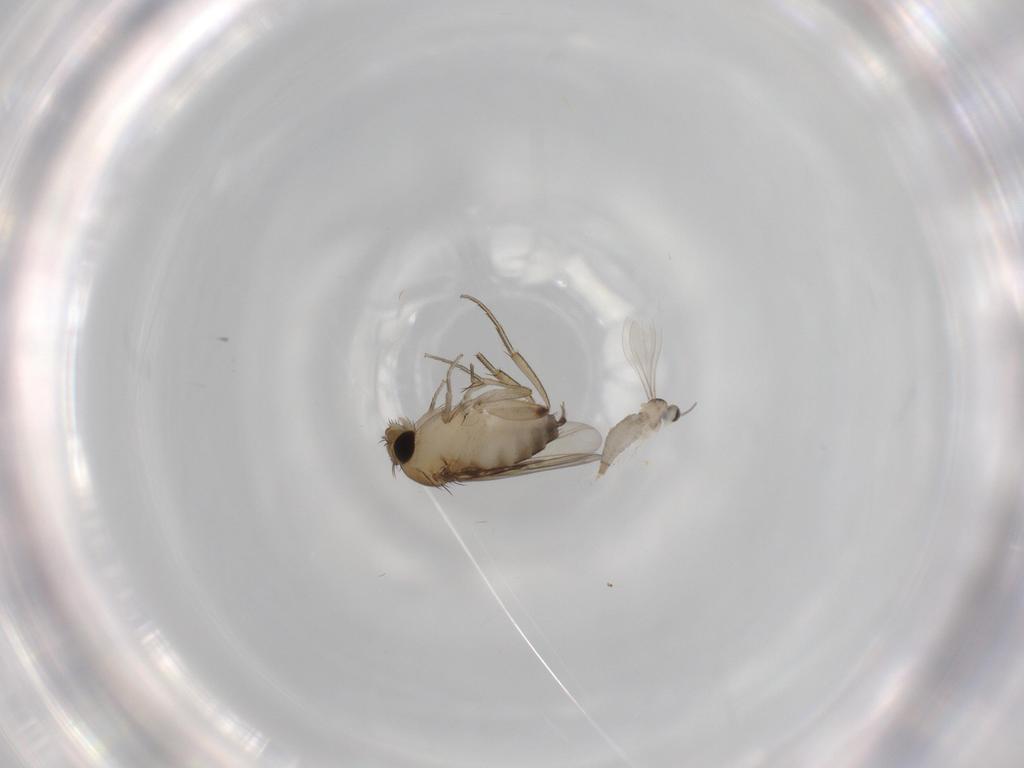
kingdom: Animalia
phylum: Arthropoda
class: Insecta
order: Diptera
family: Phoridae
